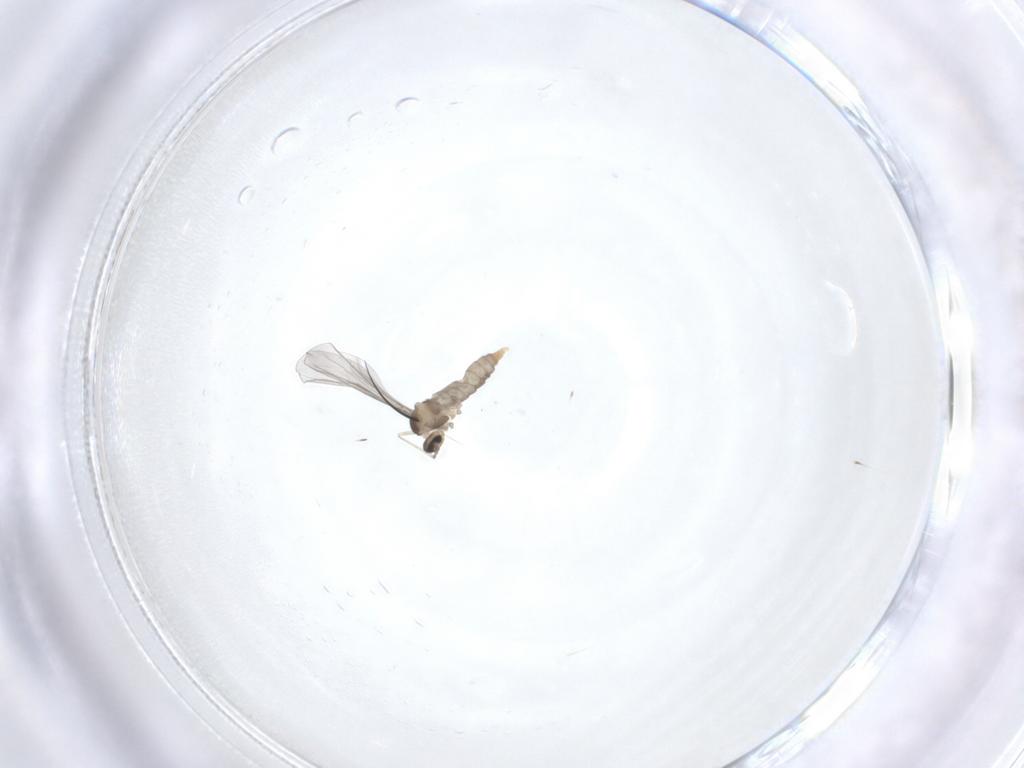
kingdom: Animalia
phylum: Arthropoda
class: Insecta
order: Diptera
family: Cecidomyiidae
